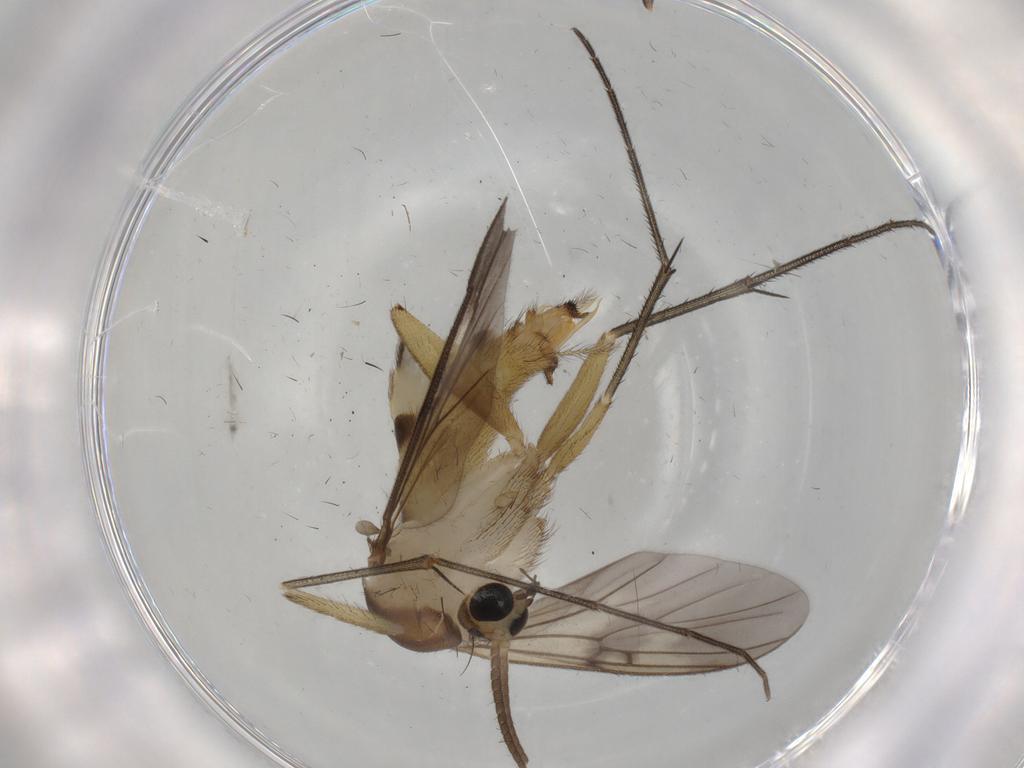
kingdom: Animalia
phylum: Arthropoda
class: Insecta
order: Diptera
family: Mycetophilidae
